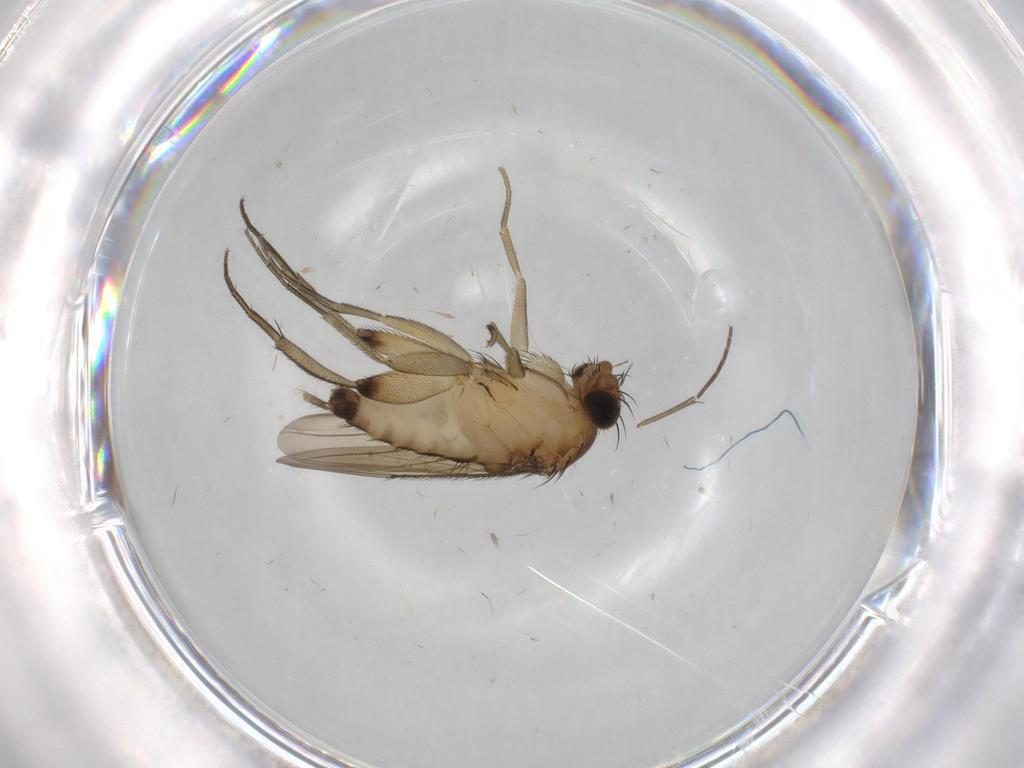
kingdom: Animalia
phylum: Arthropoda
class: Insecta
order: Diptera
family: Phoridae
